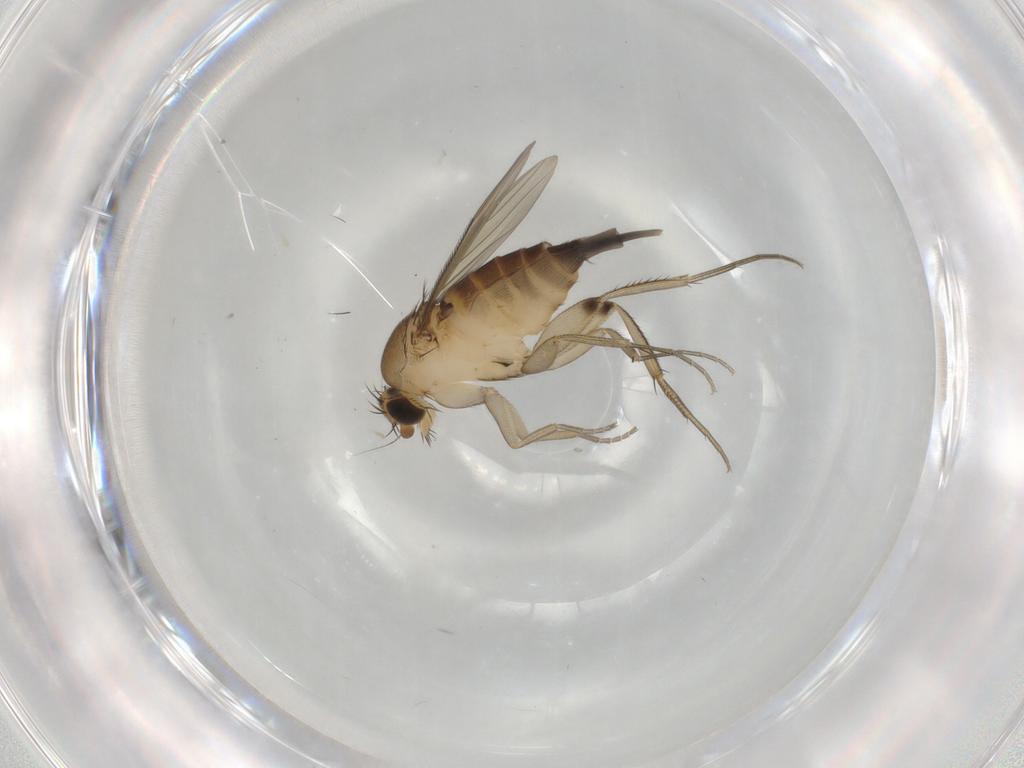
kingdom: Animalia
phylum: Arthropoda
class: Insecta
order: Diptera
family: Phoridae
